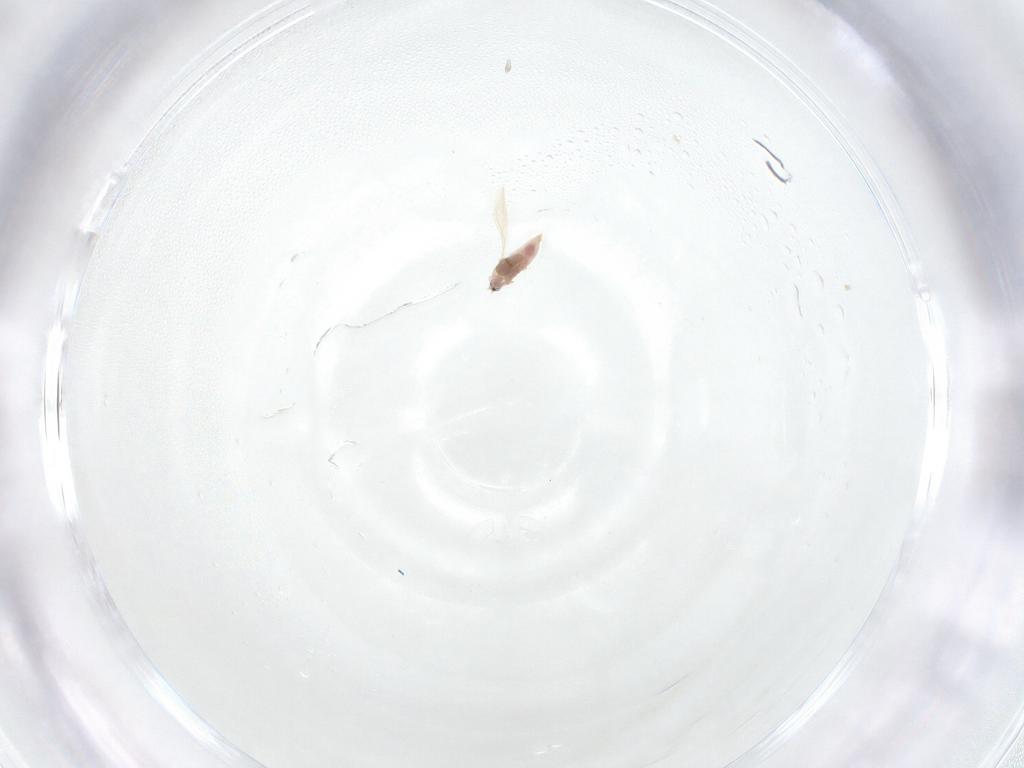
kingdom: Animalia
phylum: Arthropoda
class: Insecta
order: Hemiptera
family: Diaspididae
